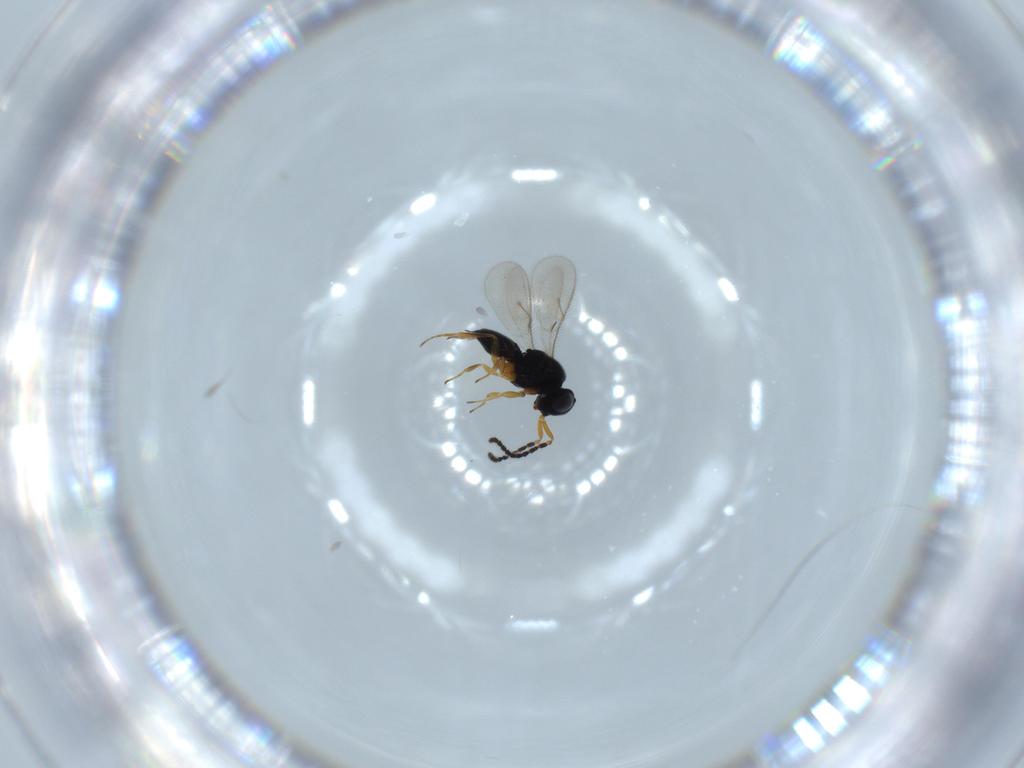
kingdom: Animalia
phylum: Arthropoda
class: Insecta
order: Hymenoptera
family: Scelionidae
